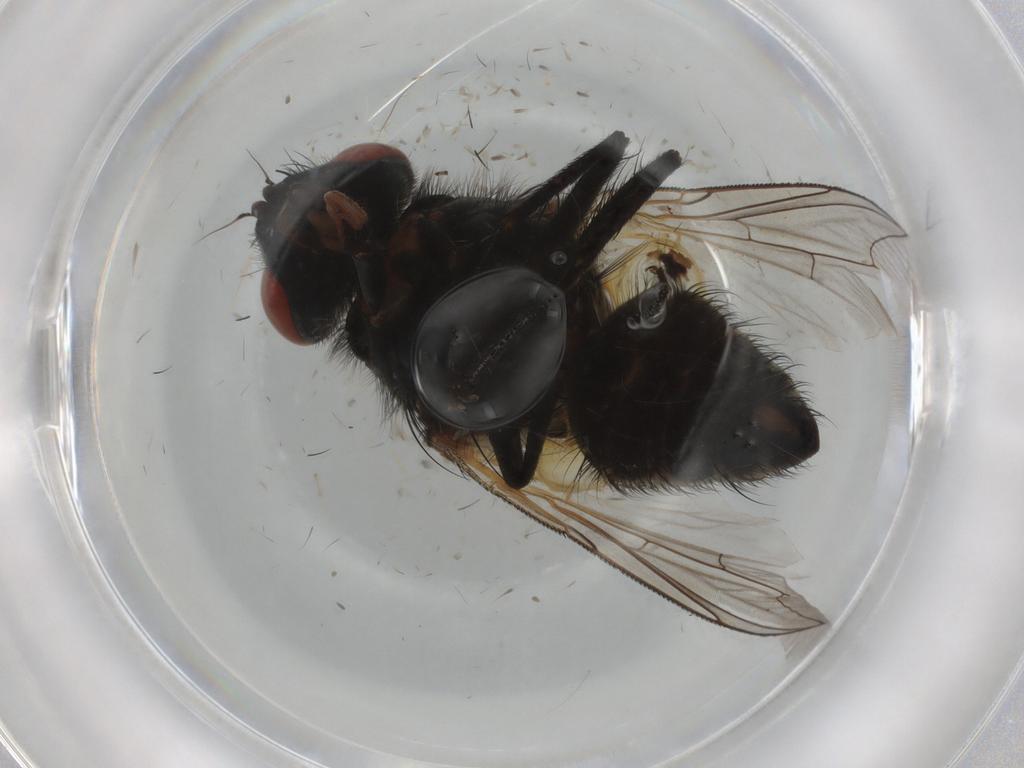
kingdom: Animalia
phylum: Arthropoda
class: Insecta
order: Diptera
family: Sarcophagidae
